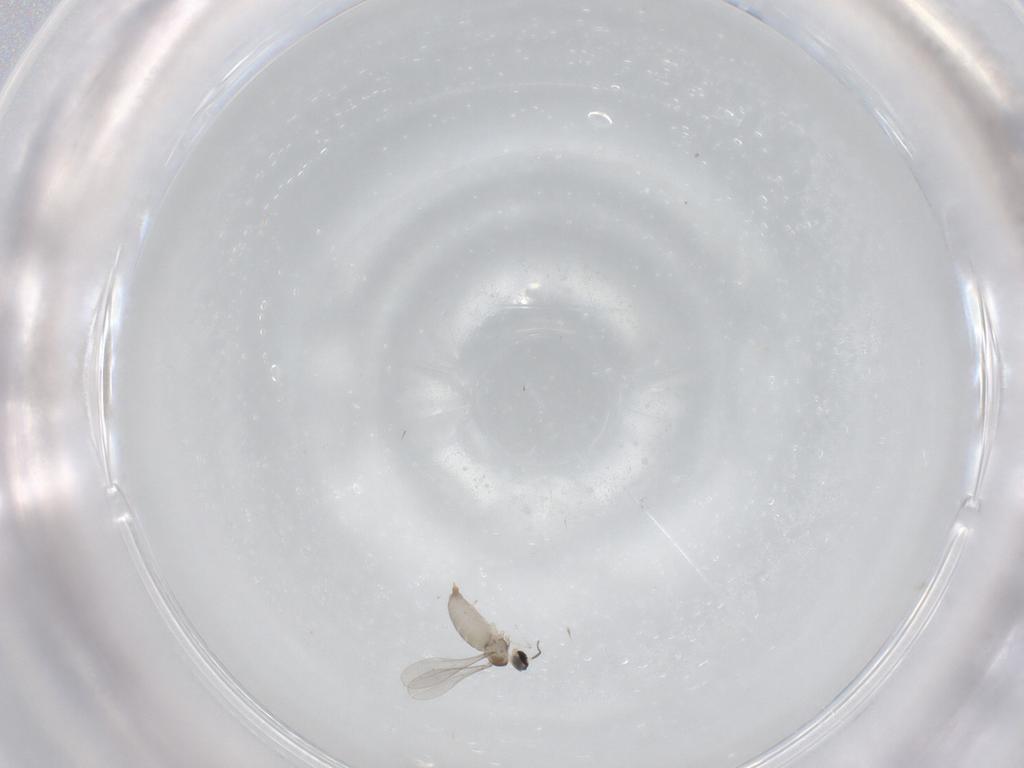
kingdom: Animalia
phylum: Arthropoda
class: Insecta
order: Diptera
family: Cecidomyiidae
